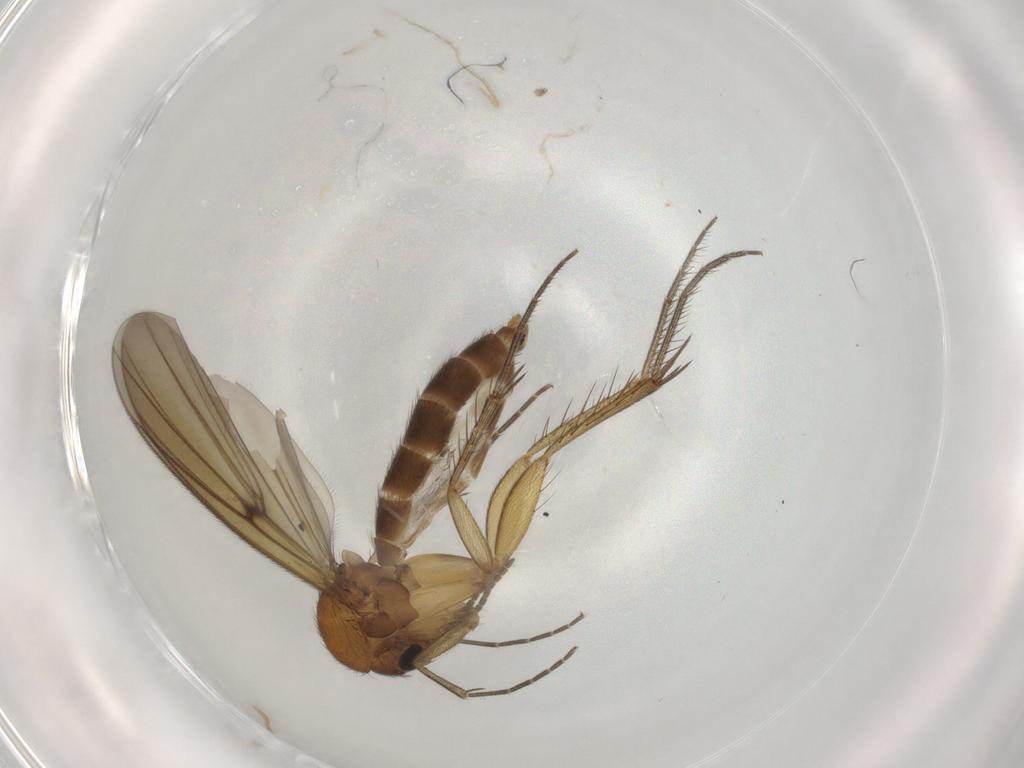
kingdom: Animalia
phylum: Arthropoda
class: Insecta
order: Diptera
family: Bibionidae
